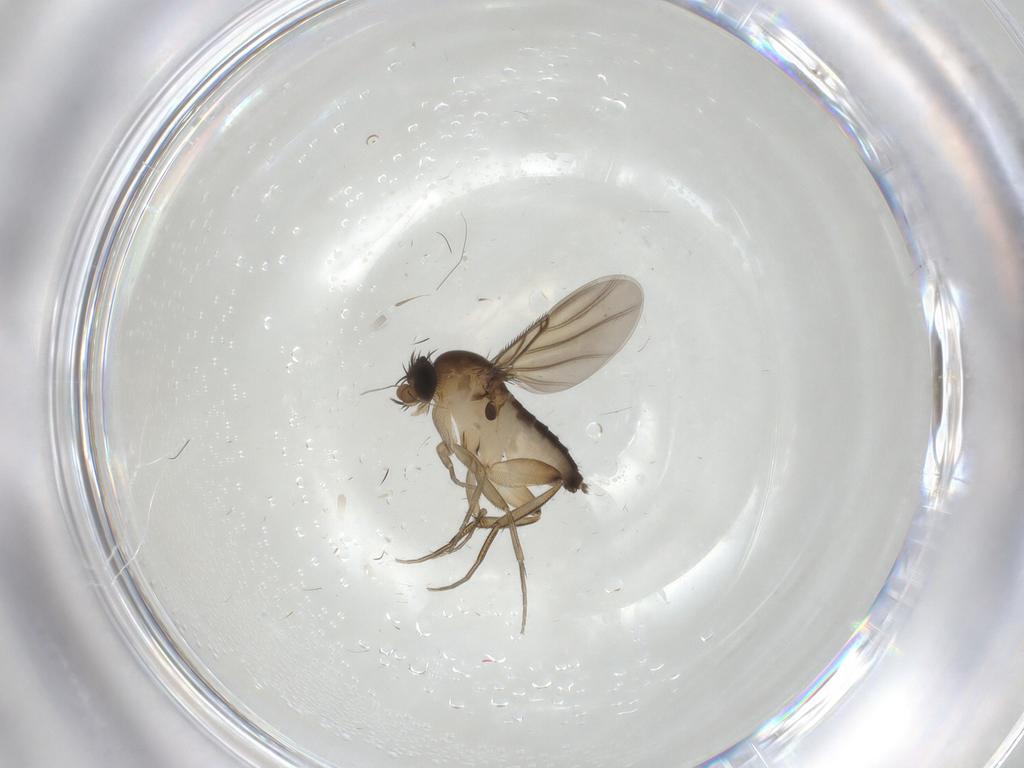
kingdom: Animalia
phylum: Arthropoda
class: Insecta
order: Diptera
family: Phoridae
